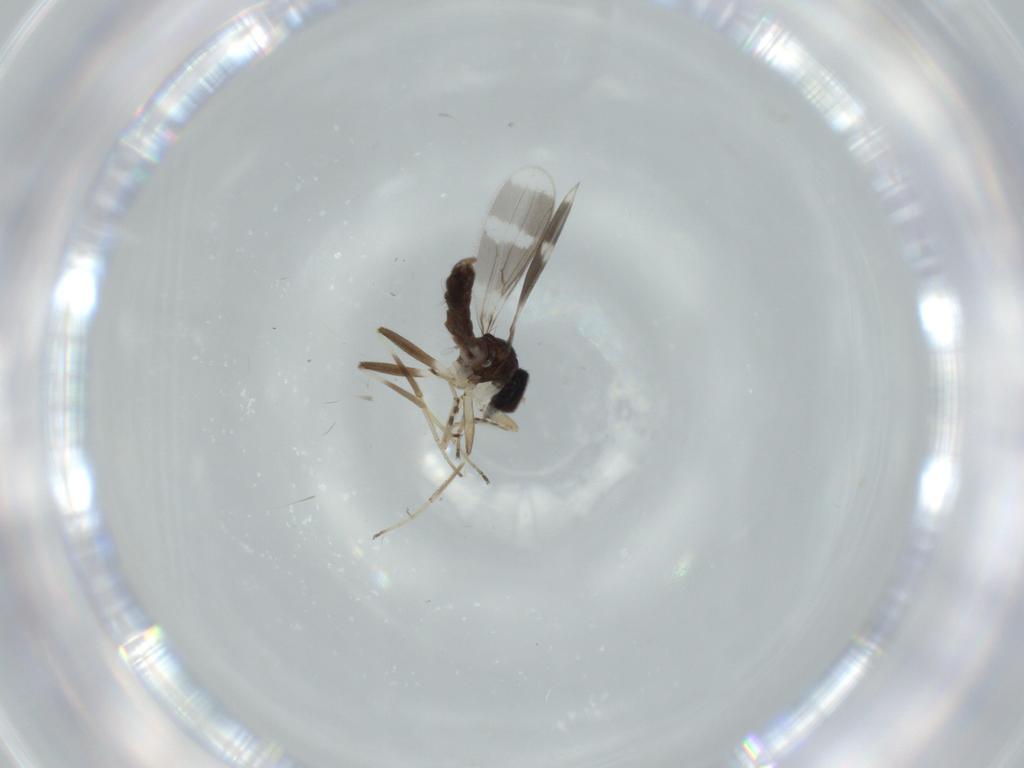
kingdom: Animalia
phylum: Arthropoda
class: Insecta
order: Diptera
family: Hybotidae
